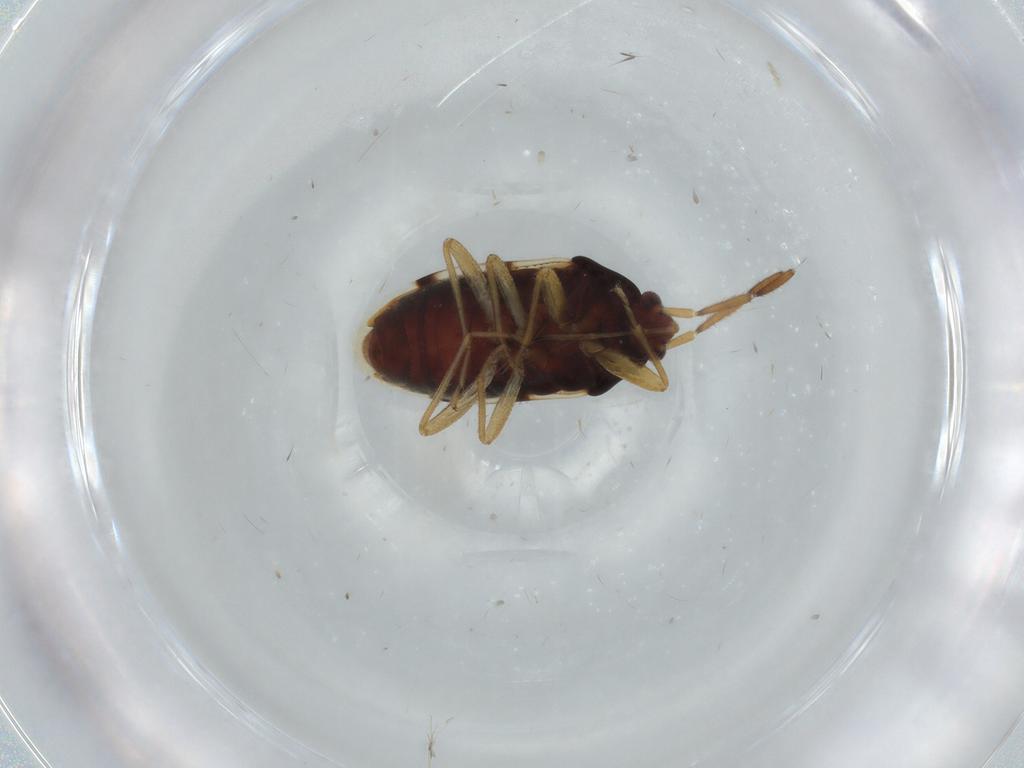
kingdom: Animalia
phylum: Arthropoda
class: Insecta
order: Hemiptera
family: Rhyparochromidae
